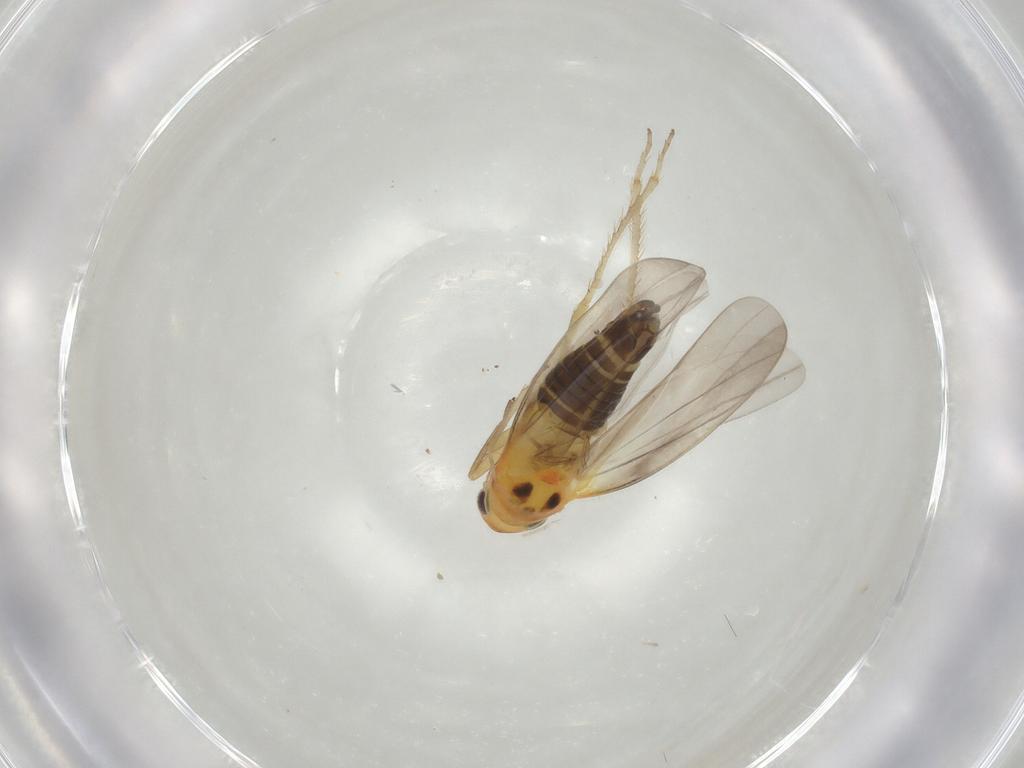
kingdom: Animalia
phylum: Arthropoda
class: Insecta
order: Hemiptera
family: Cicadellidae
